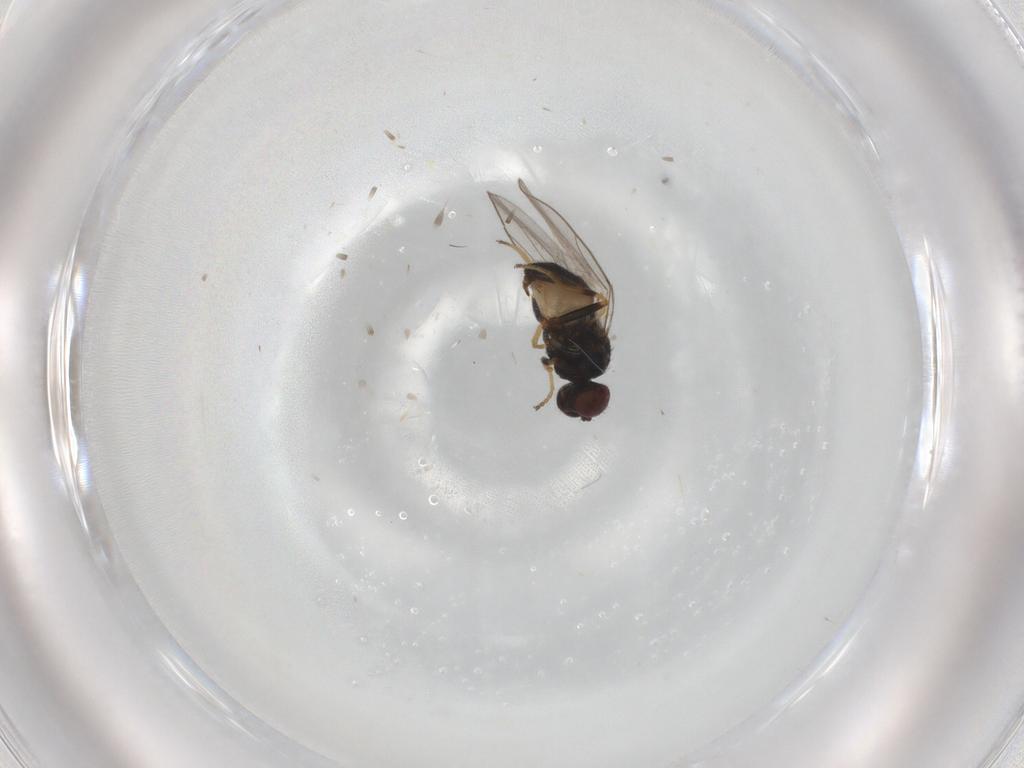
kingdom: Animalia
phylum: Arthropoda
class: Insecta
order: Diptera
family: Chloropidae
